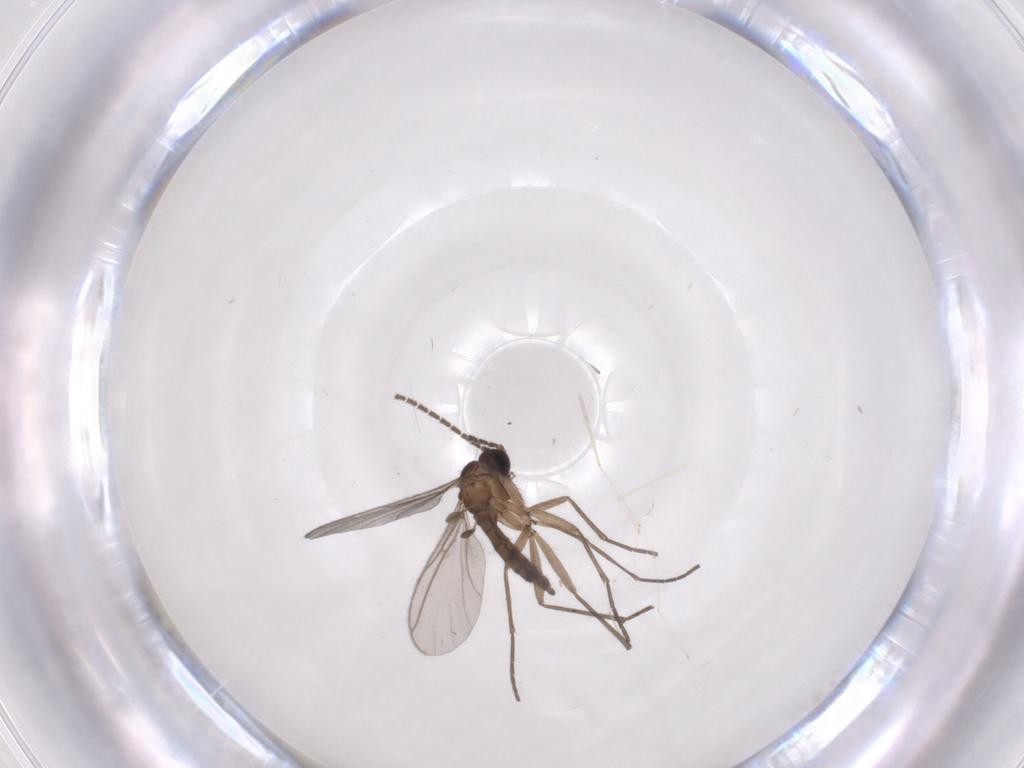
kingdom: Animalia
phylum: Arthropoda
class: Insecta
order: Diptera
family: Sciaridae
